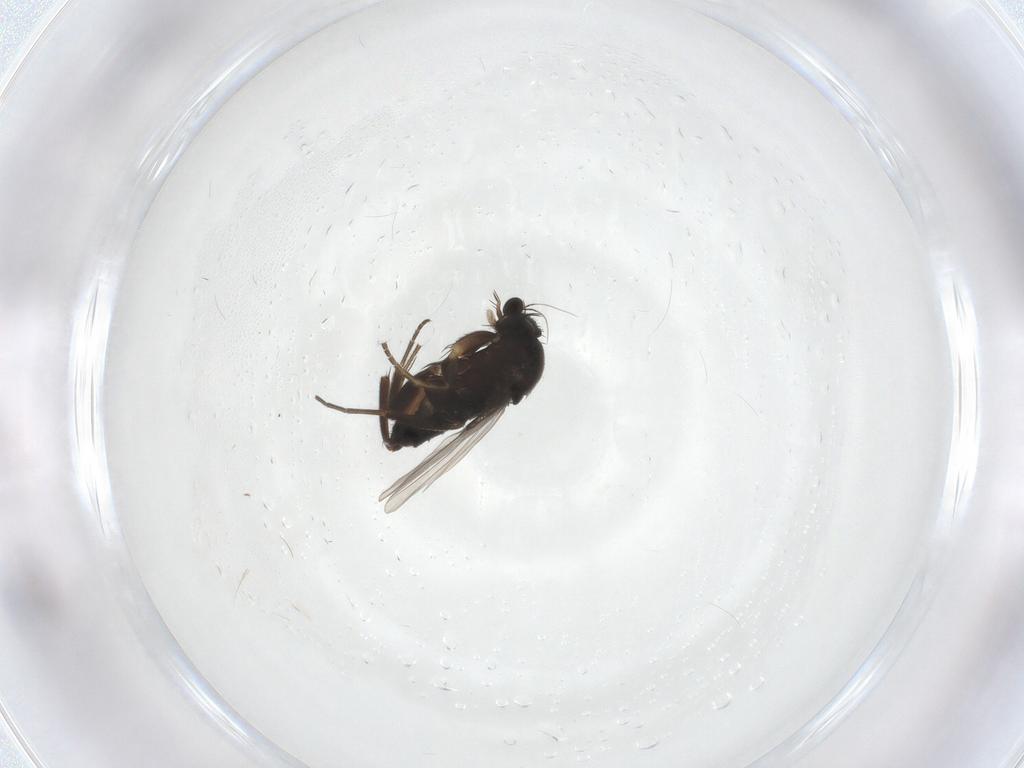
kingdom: Animalia
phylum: Arthropoda
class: Insecta
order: Diptera
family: Limoniidae
